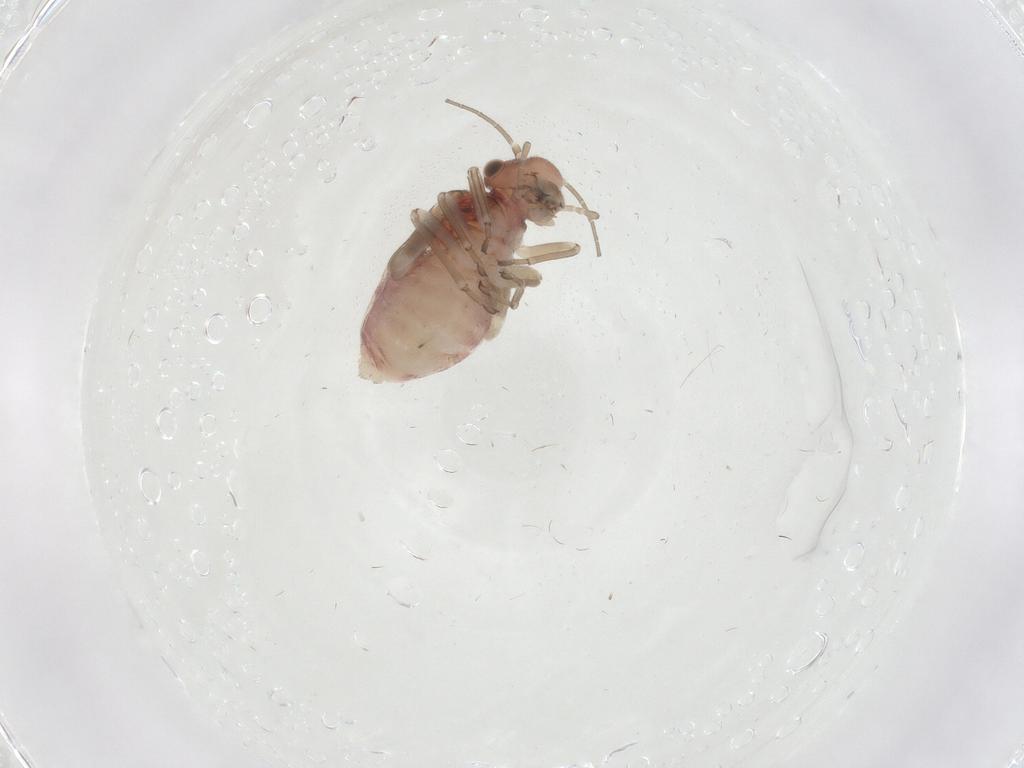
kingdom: Animalia
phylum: Arthropoda
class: Insecta
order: Psocodea
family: Caeciliusidae
